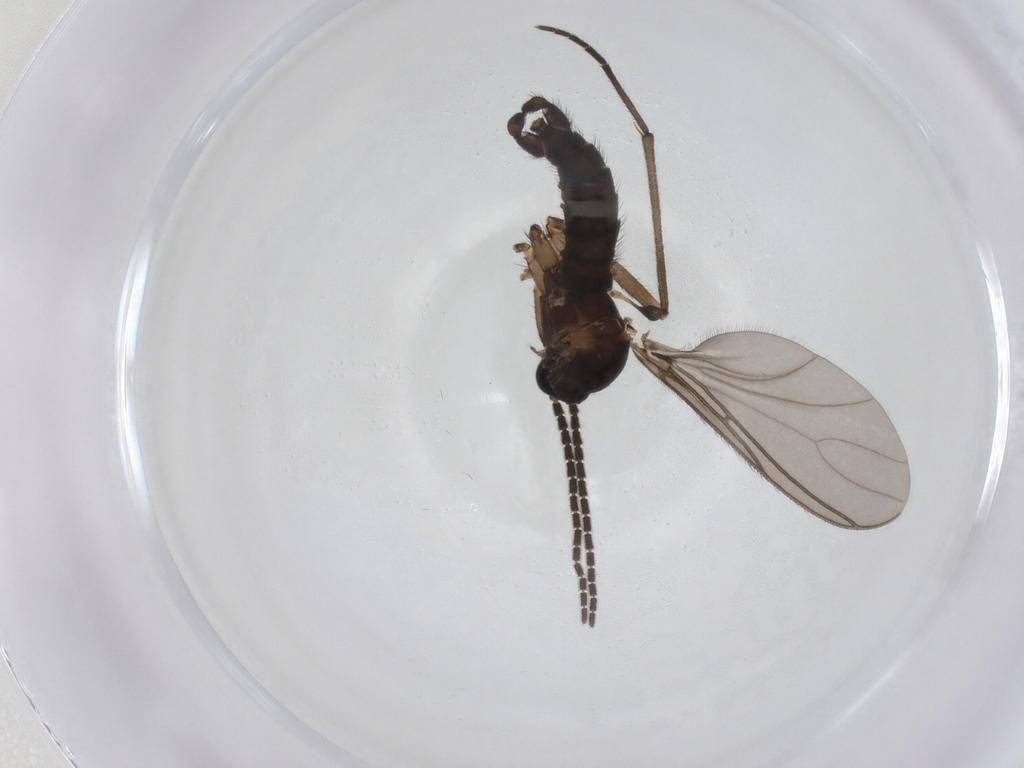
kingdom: Animalia
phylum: Arthropoda
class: Insecta
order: Diptera
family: Sciaridae
